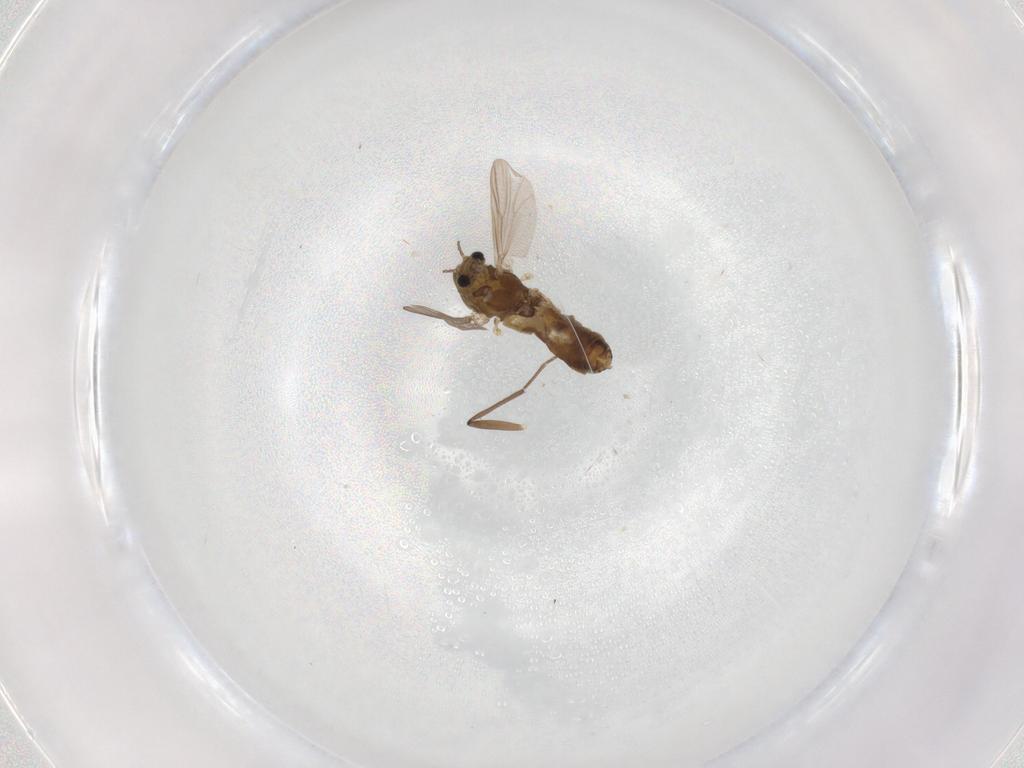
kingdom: Animalia
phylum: Arthropoda
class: Insecta
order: Diptera
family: Chironomidae
